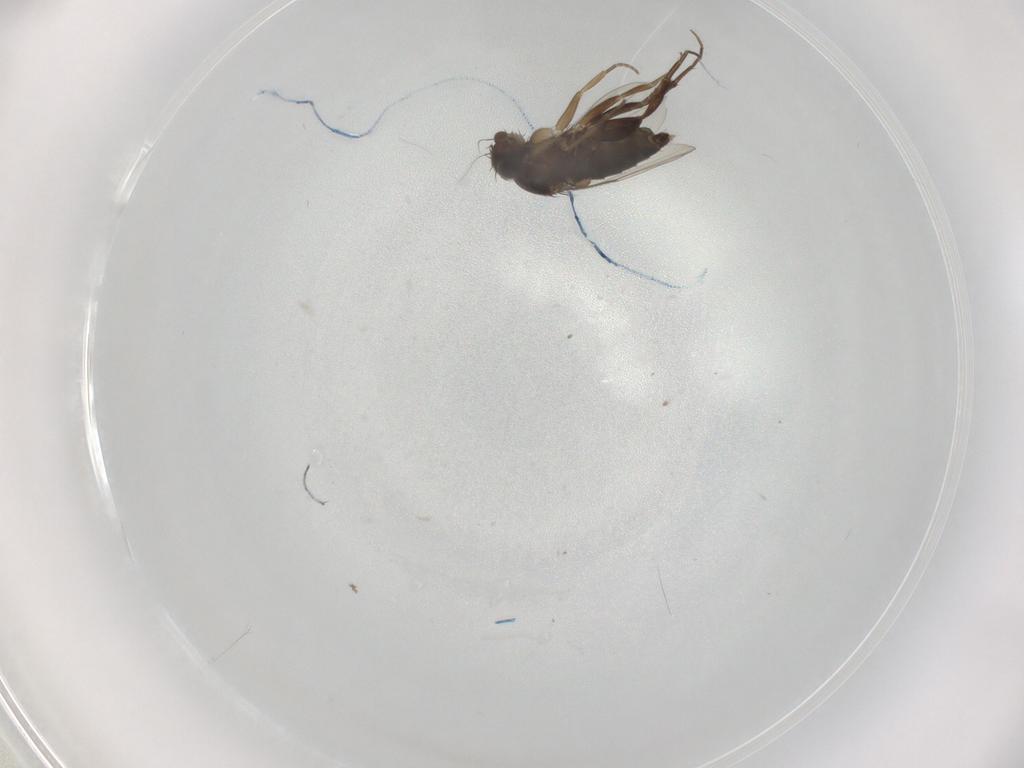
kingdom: Animalia
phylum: Arthropoda
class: Insecta
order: Diptera
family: Phoridae
